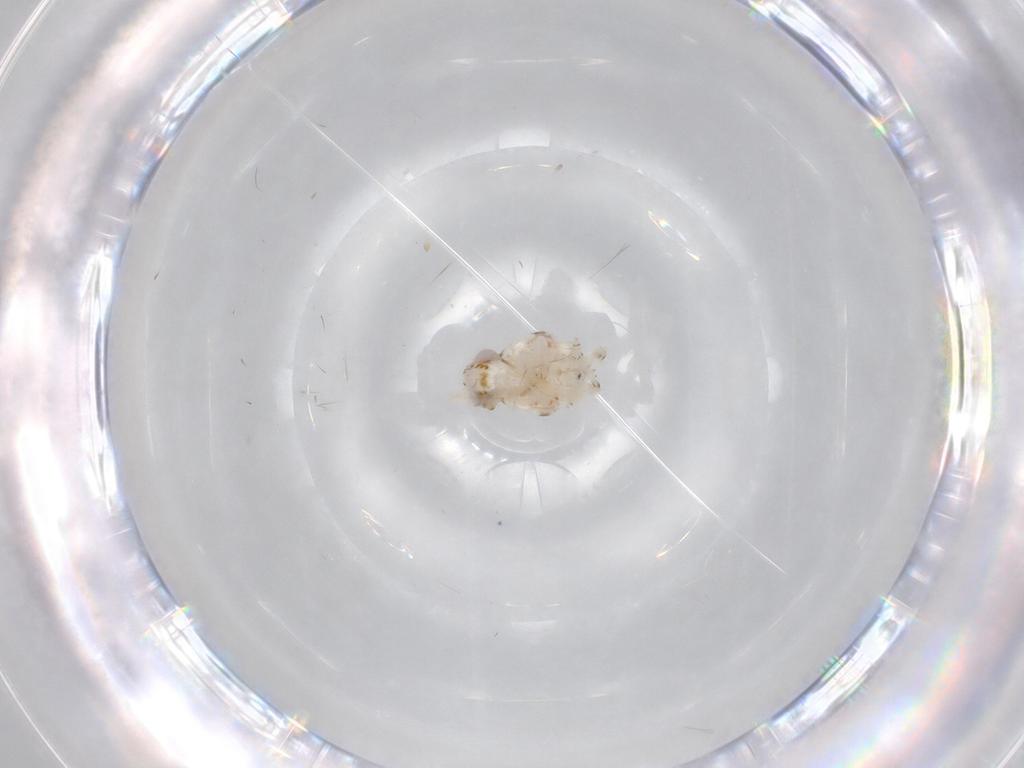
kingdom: Animalia
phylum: Arthropoda
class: Insecta
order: Hemiptera
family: Nogodinidae
